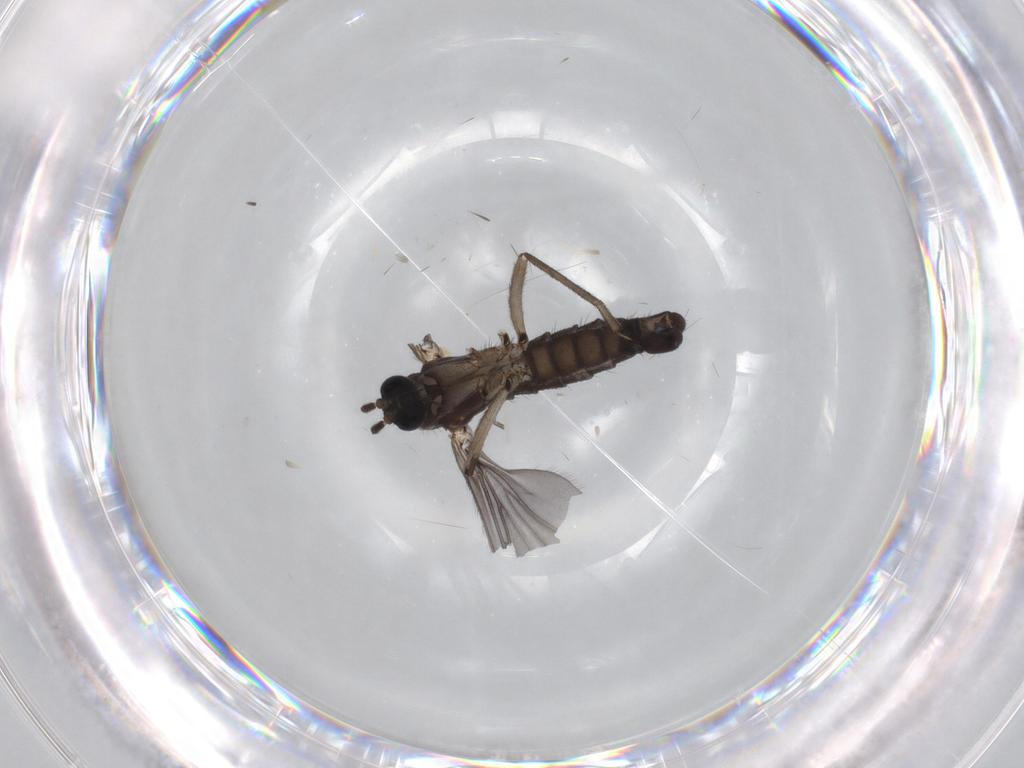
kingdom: Animalia
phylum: Arthropoda
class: Insecta
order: Diptera
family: Sciaridae
